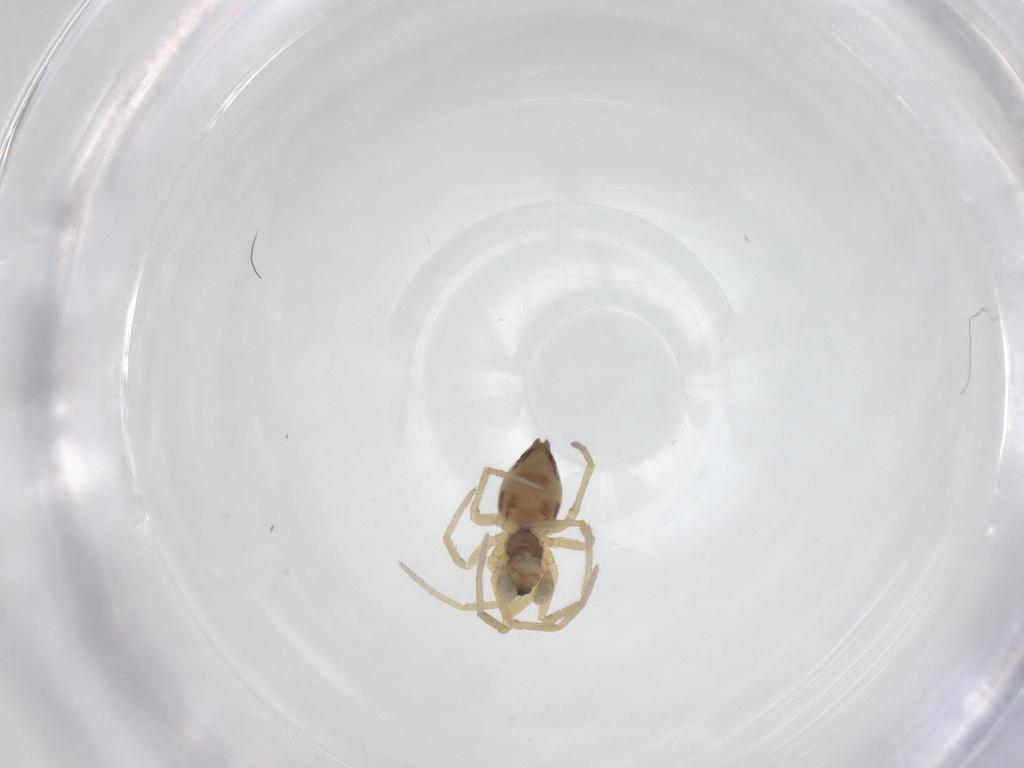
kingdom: Animalia
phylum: Arthropoda
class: Arachnida
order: Araneae
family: Linyphiidae
